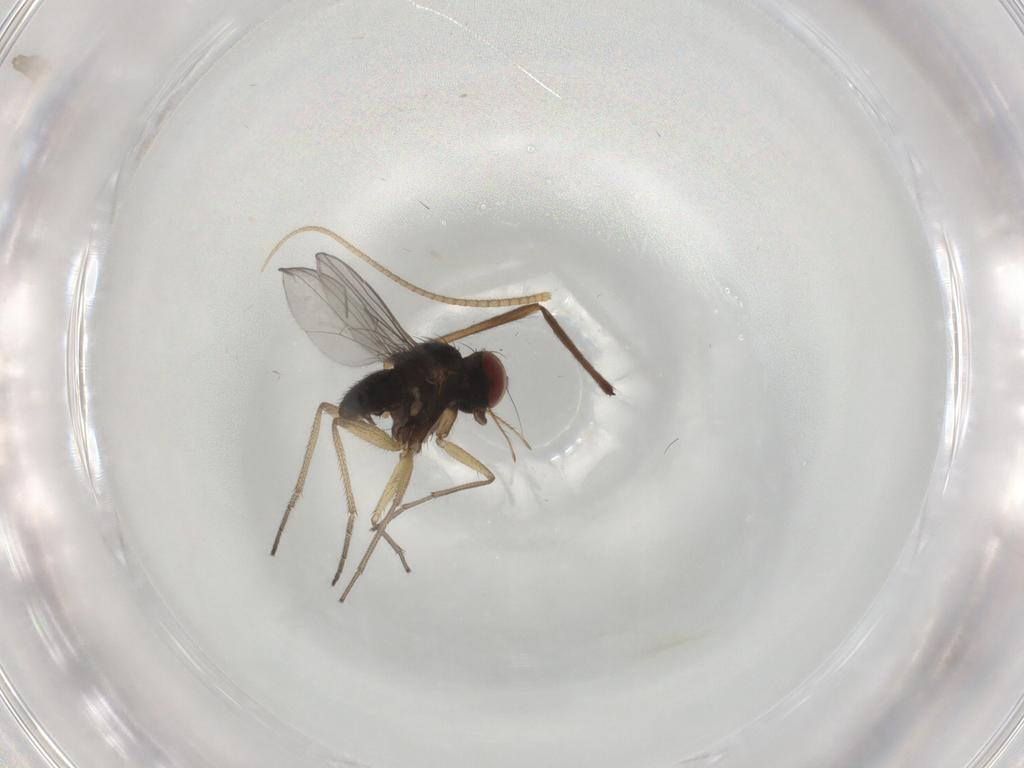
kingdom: Animalia
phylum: Arthropoda
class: Insecta
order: Diptera
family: Dolichopodidae
